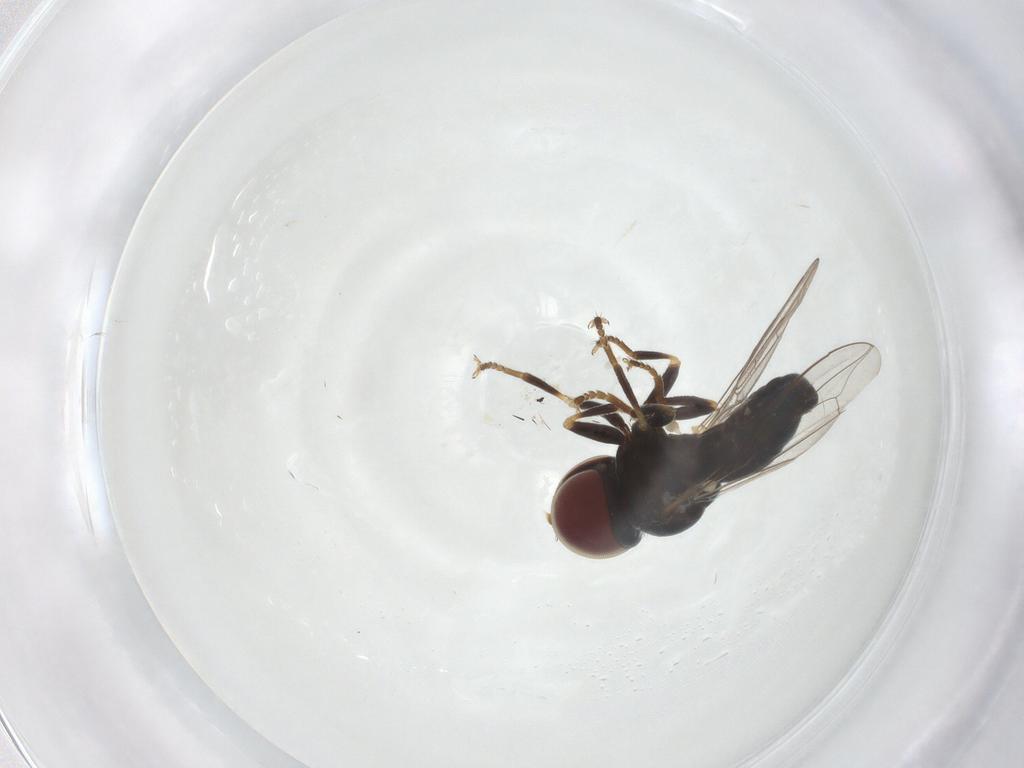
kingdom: Animalia
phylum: Arthropoda
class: Insecta
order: Diptera
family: Pipunculidae
